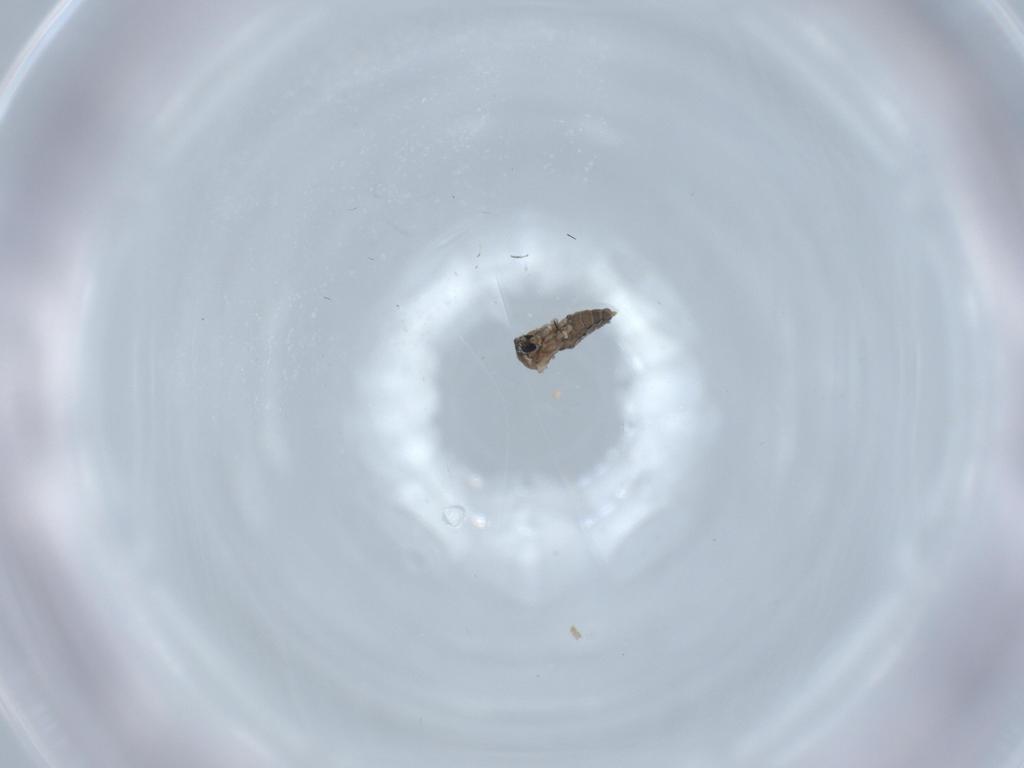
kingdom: Animalia
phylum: Arthropoda
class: Insecta
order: Diptera
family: Cecidomyiidae
